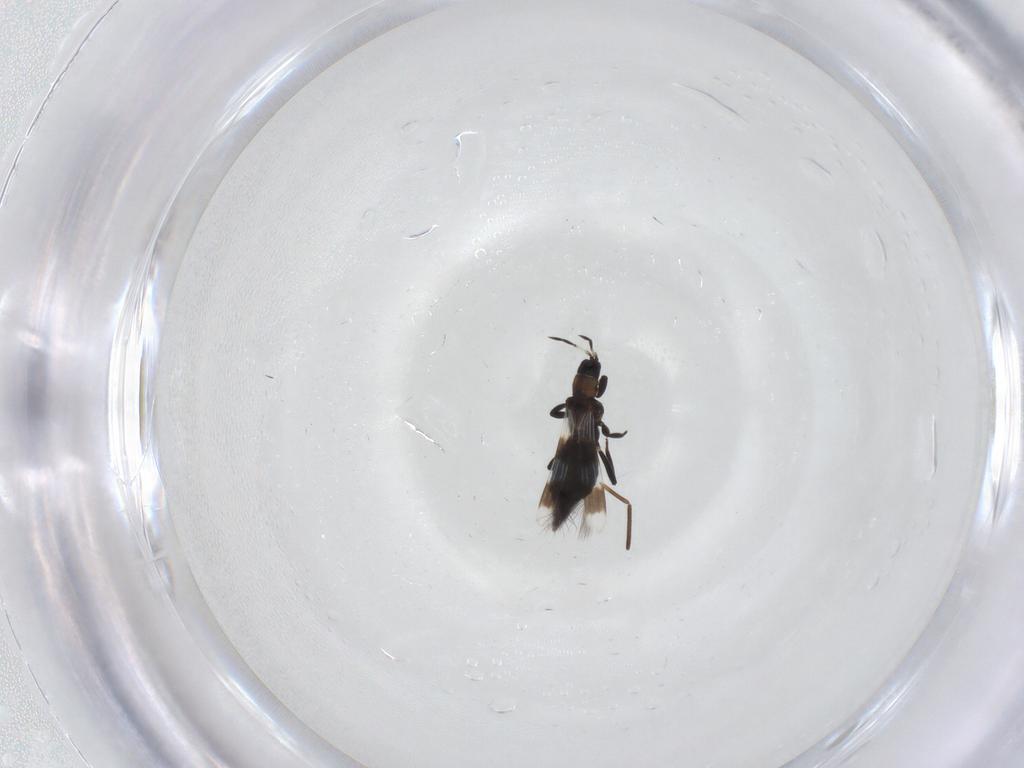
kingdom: Animalia
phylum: Arthropoda
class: Insecta
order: Thysanoptera
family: Aeolothripidae
